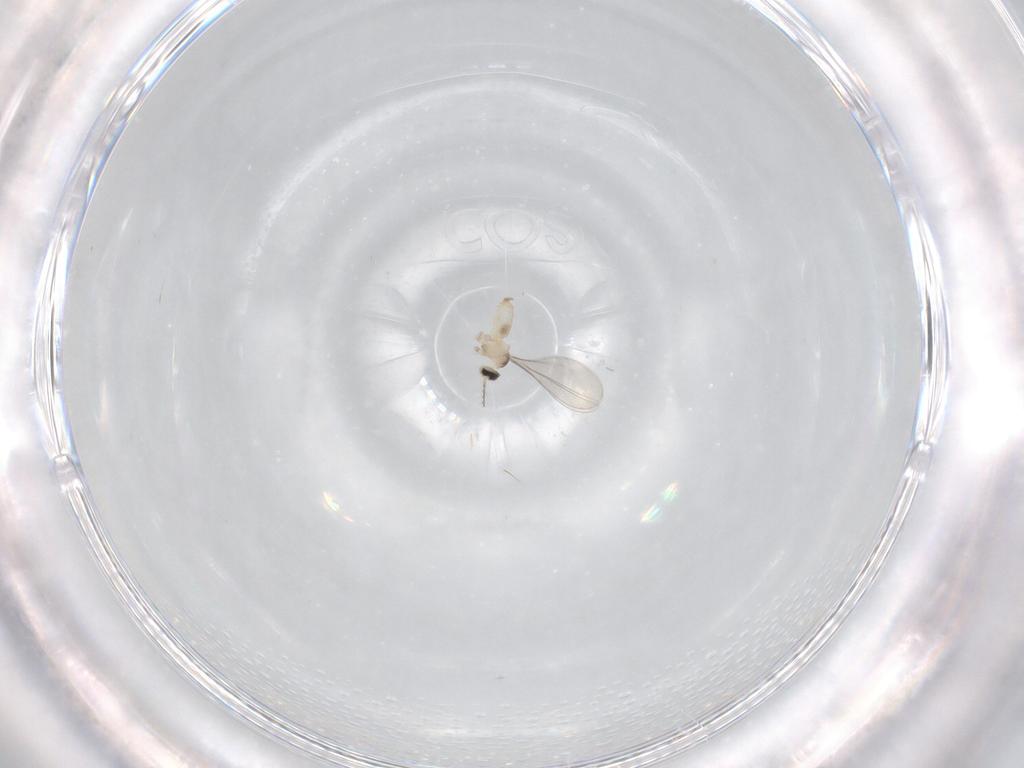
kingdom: Animalia
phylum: Arthropoda
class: Insecta
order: Diptera
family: Cecidomyiidae
